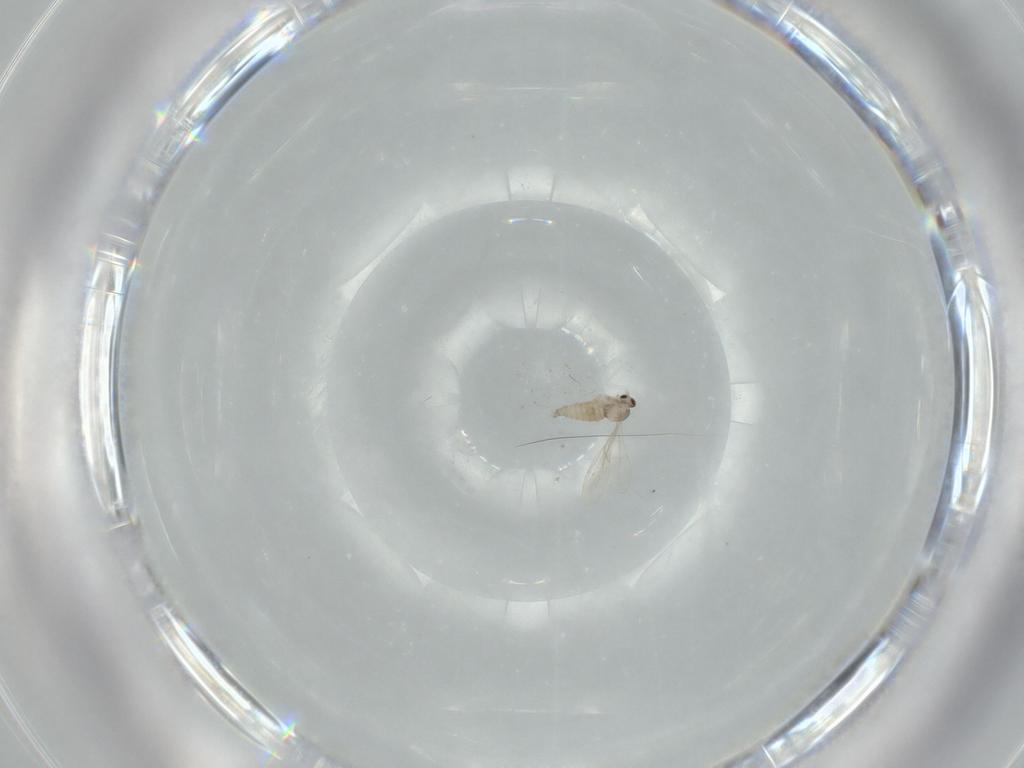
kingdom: Animalia
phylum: Arthropoda
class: Insecta
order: Diptera
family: Cecidomyiidae
